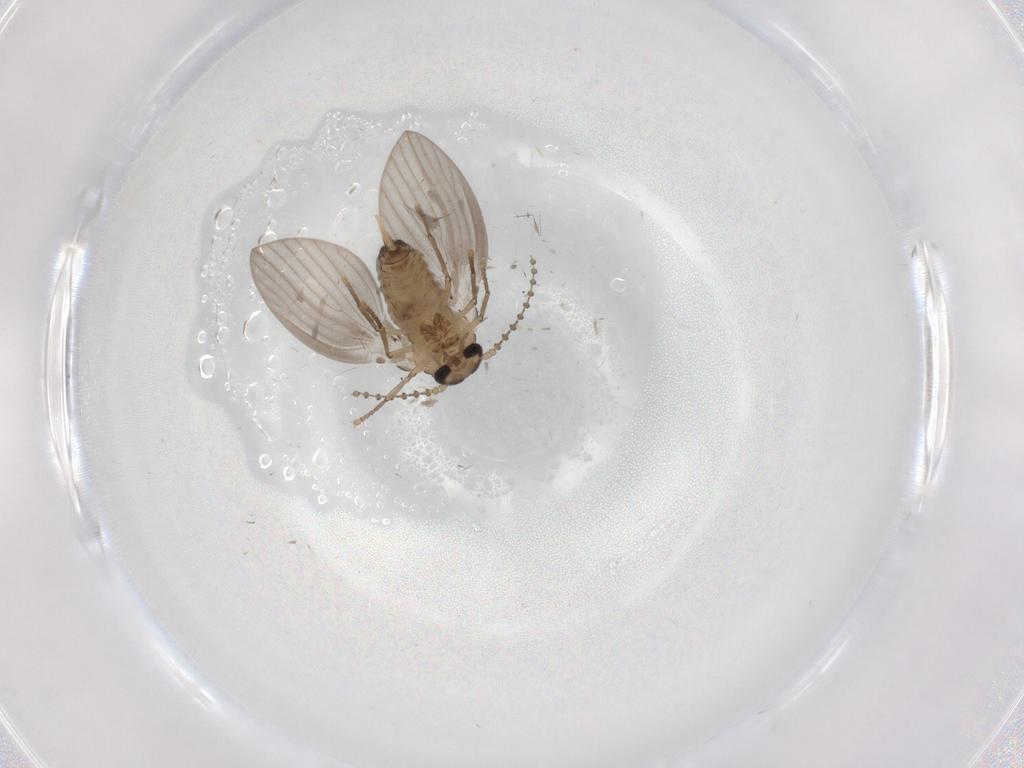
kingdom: Animalia
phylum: Arthropoda
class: Insecta
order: Diptera
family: Psychodidae
